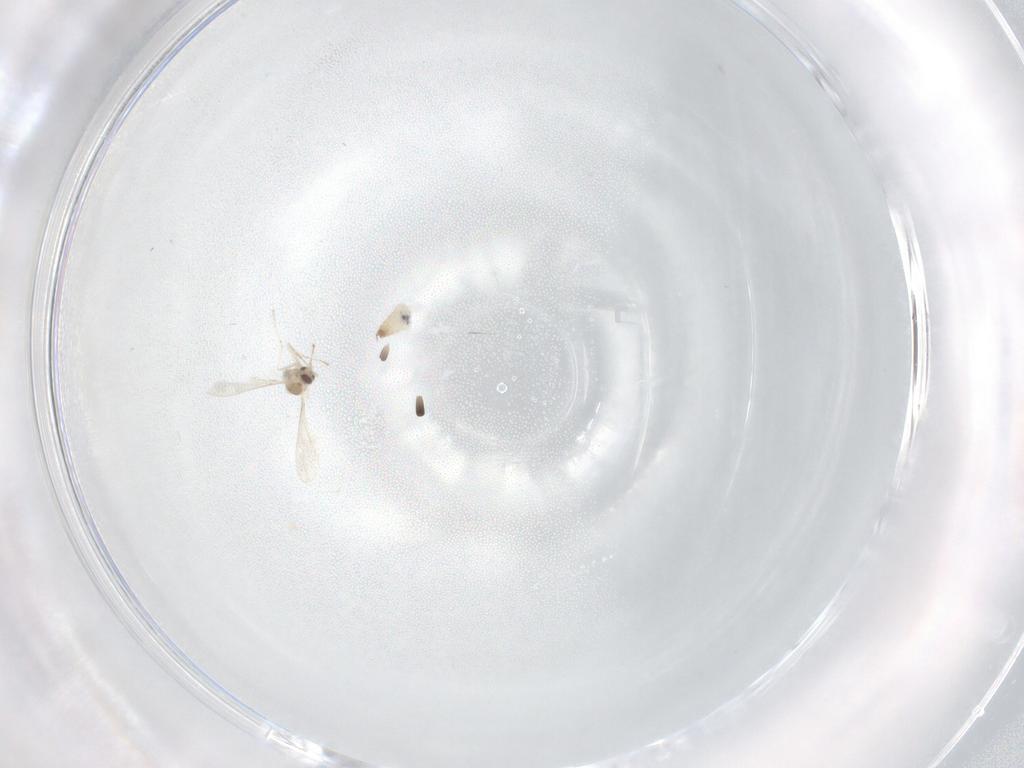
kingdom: Animalia
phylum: Arthropoda
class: Insecta
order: Diptera
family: Cecidomyiidae
